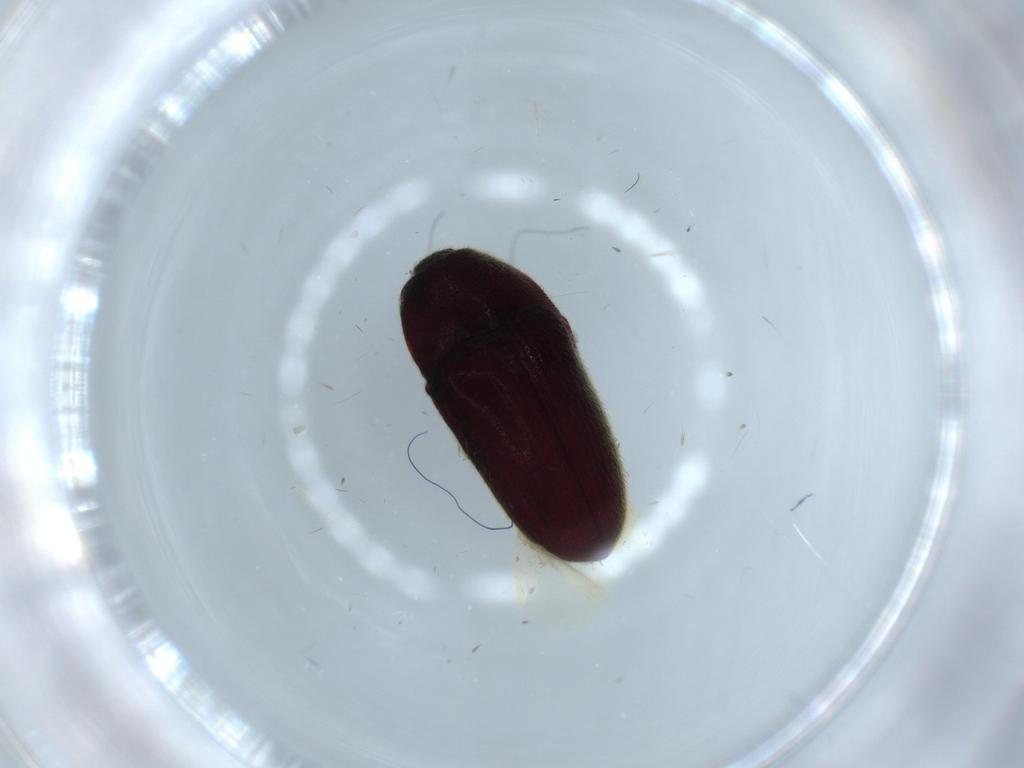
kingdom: Animalia
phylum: Arthropoda
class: Insecta
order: Coleoptera
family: Throscidae
